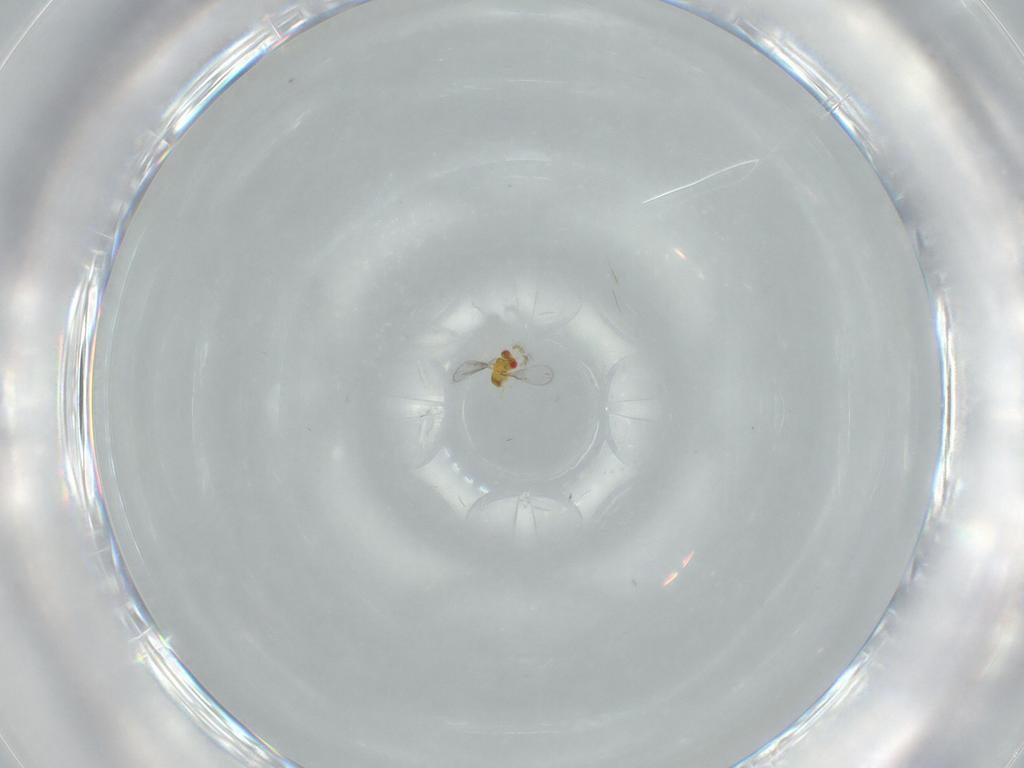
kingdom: Animalia
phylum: Arthropoda
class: Insecta
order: Hymenoptera
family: Trichogrammatidae
